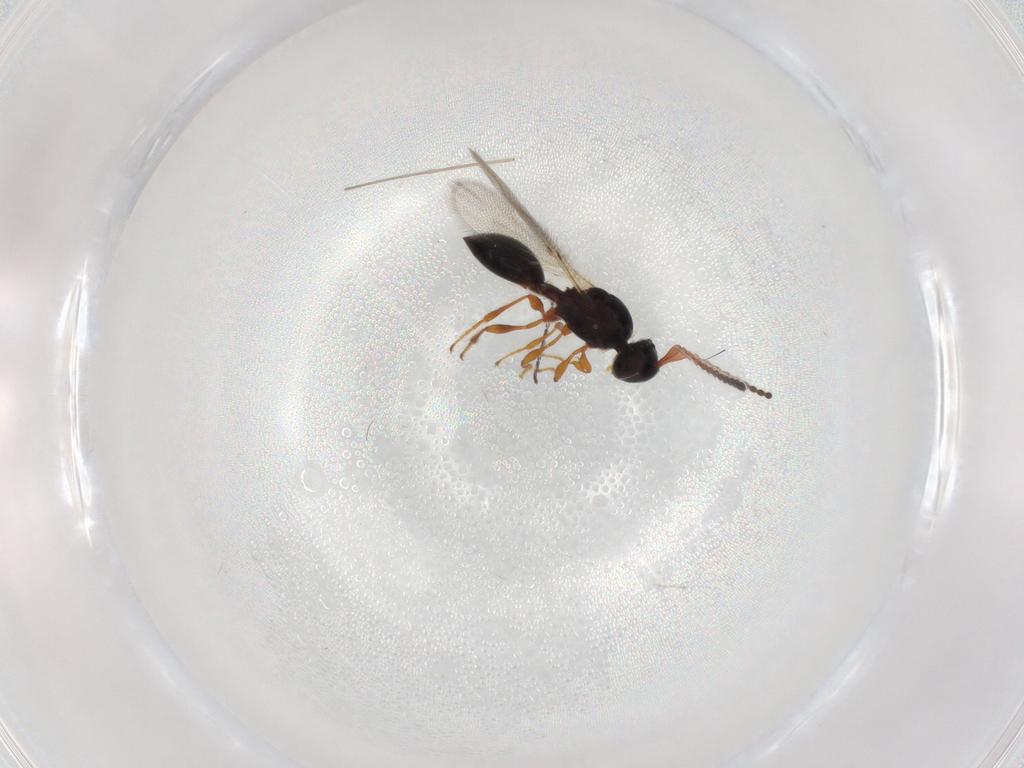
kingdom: Animalia
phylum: Arthropoda
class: Insecta
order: Hymenoptera
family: Diapriidae
